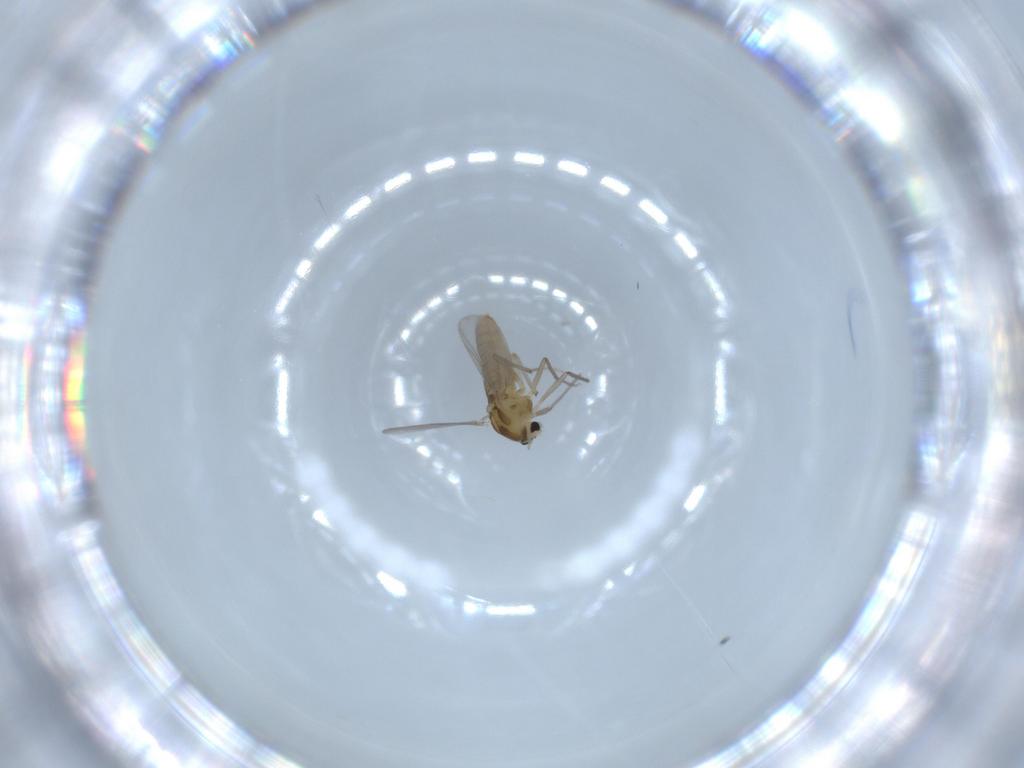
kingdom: Animalia
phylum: Arthropoda
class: Insecta
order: Diptera
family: Chironomidae
